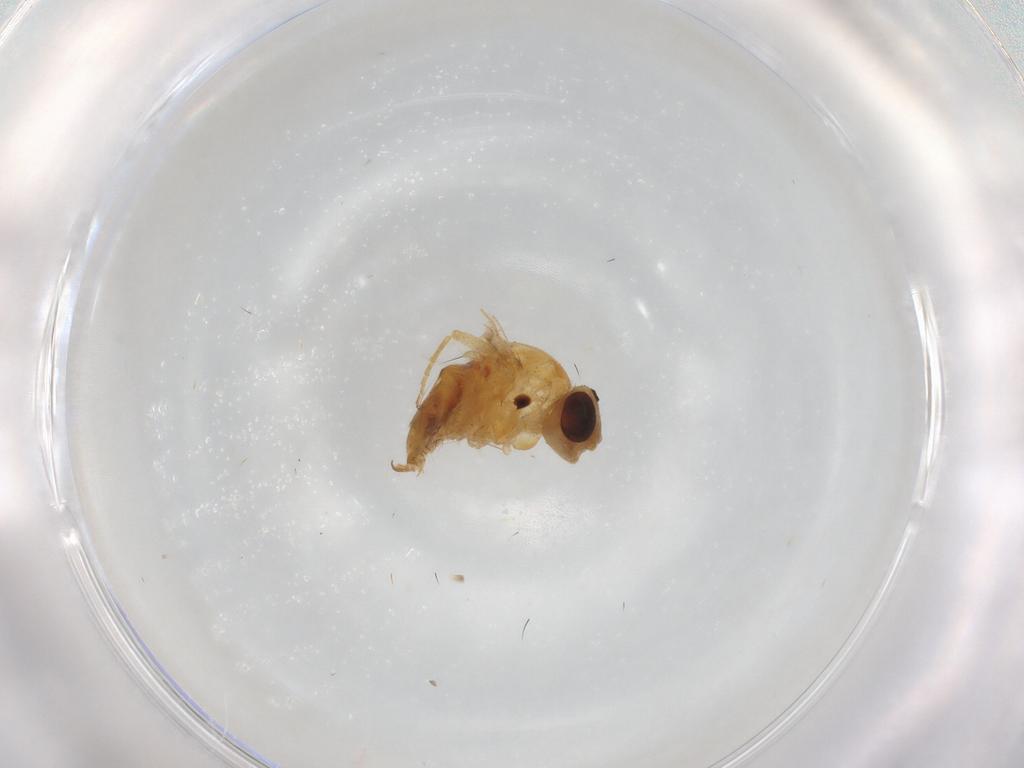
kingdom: Animalia
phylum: Arthropoda
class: Insecta
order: Diptera
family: Chloropidae
